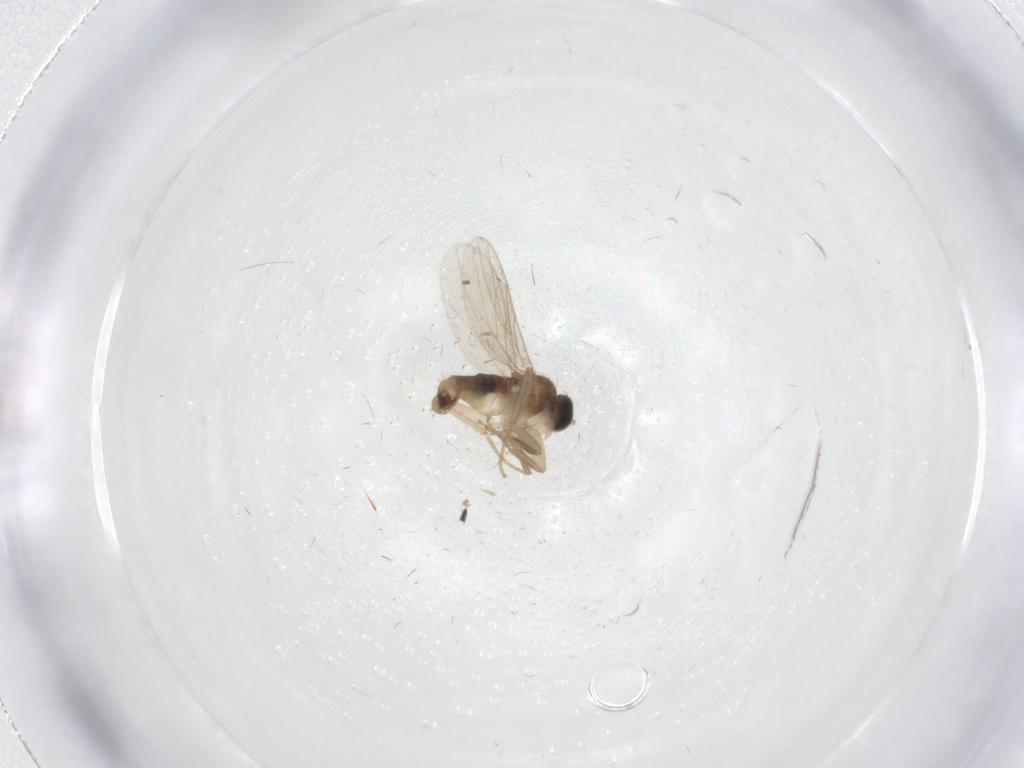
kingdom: Animalia
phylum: Arthropoda
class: Insecta
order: Diptera
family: Hybotidae
